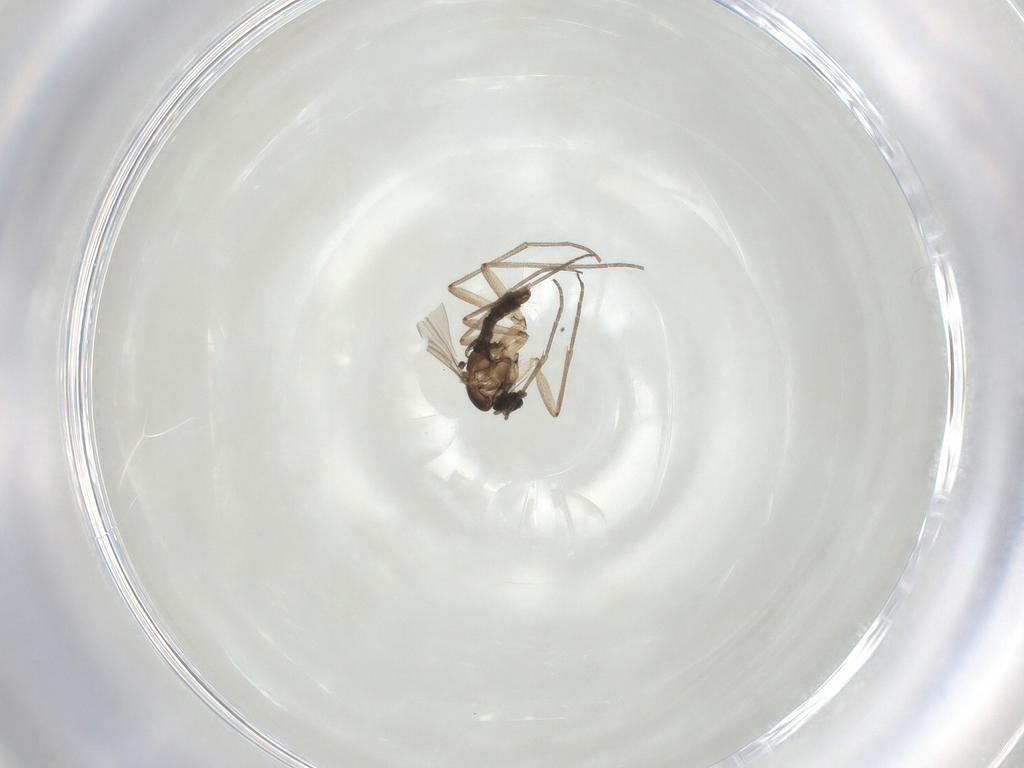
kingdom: Animalia
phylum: Arthropoda
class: Insecta
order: Diptera
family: Sciaridae
